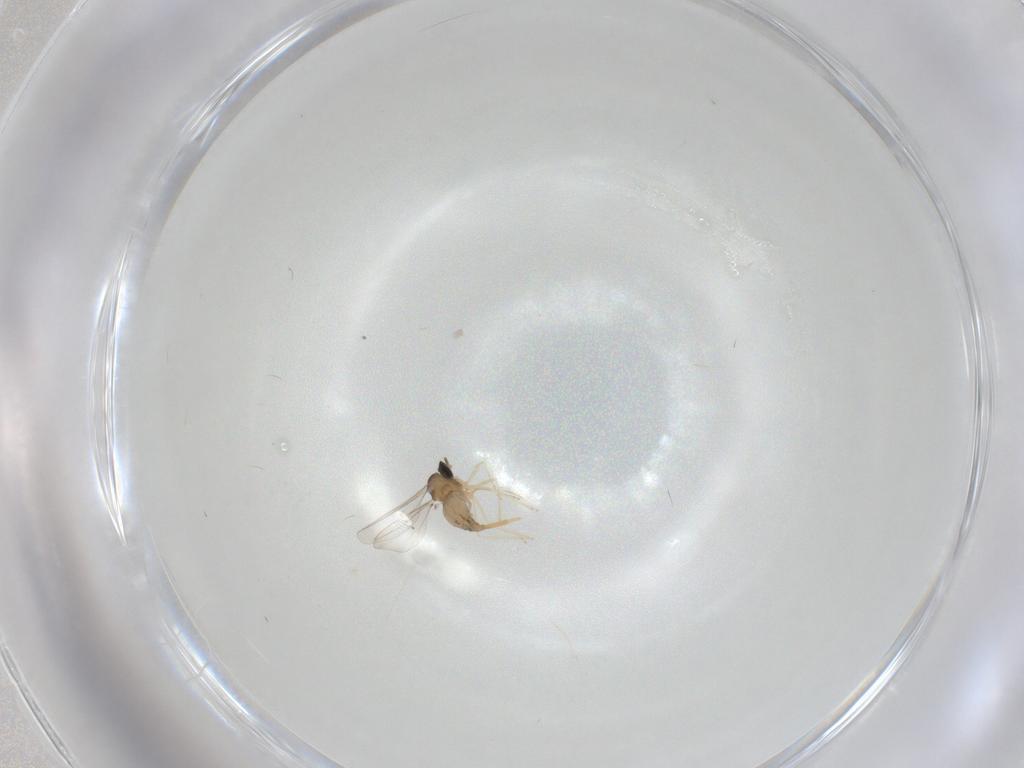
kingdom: Animalia
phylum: Arthropoda
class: Insecta
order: Diptera
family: Cecidomyiidae
